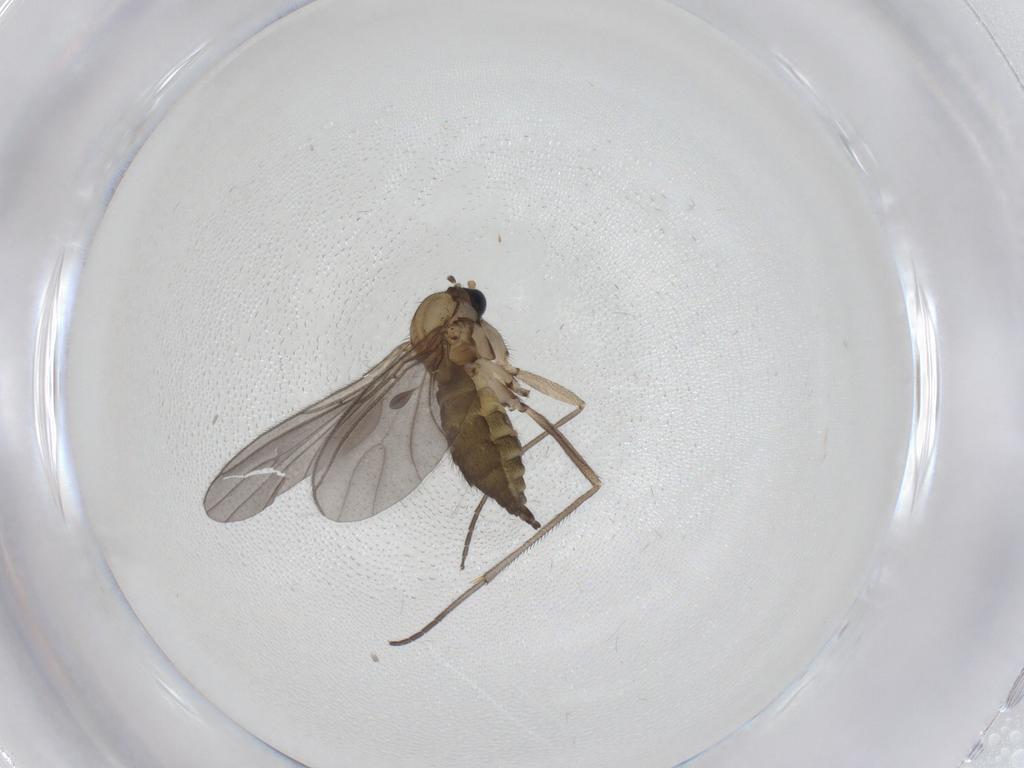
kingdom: Animalia
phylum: Arthropoda
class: Insecta
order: Diptera
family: Sciaridae
